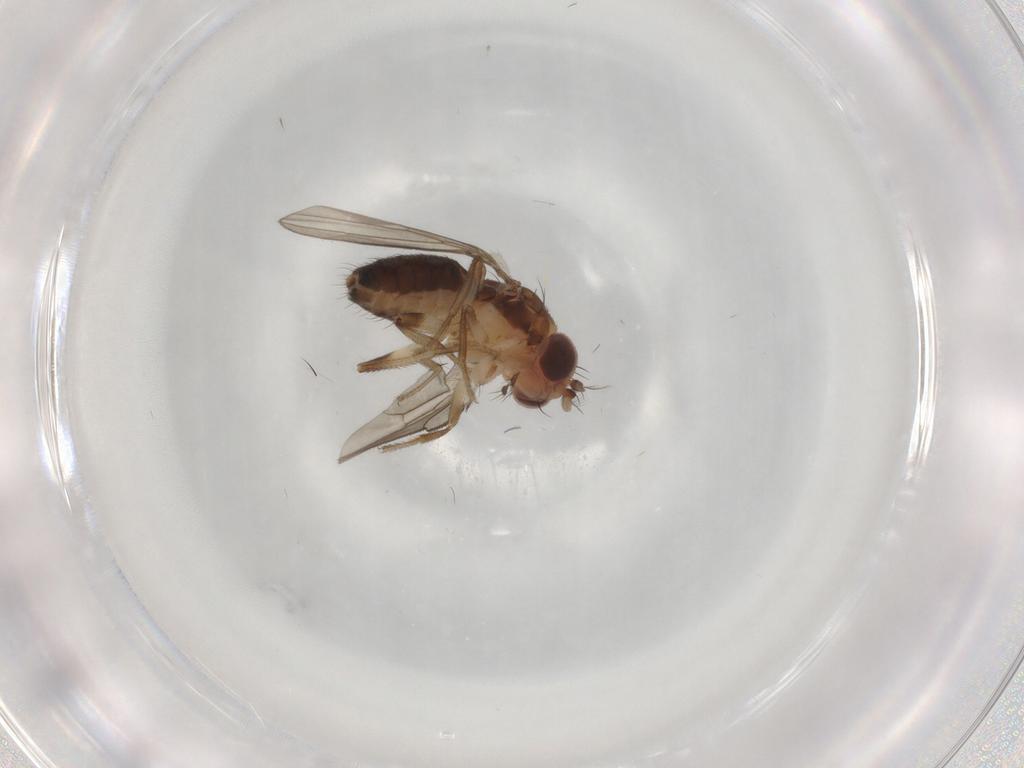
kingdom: Animalia
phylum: Arthropoda
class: Insecta
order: Diptera
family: Drosophilidae
